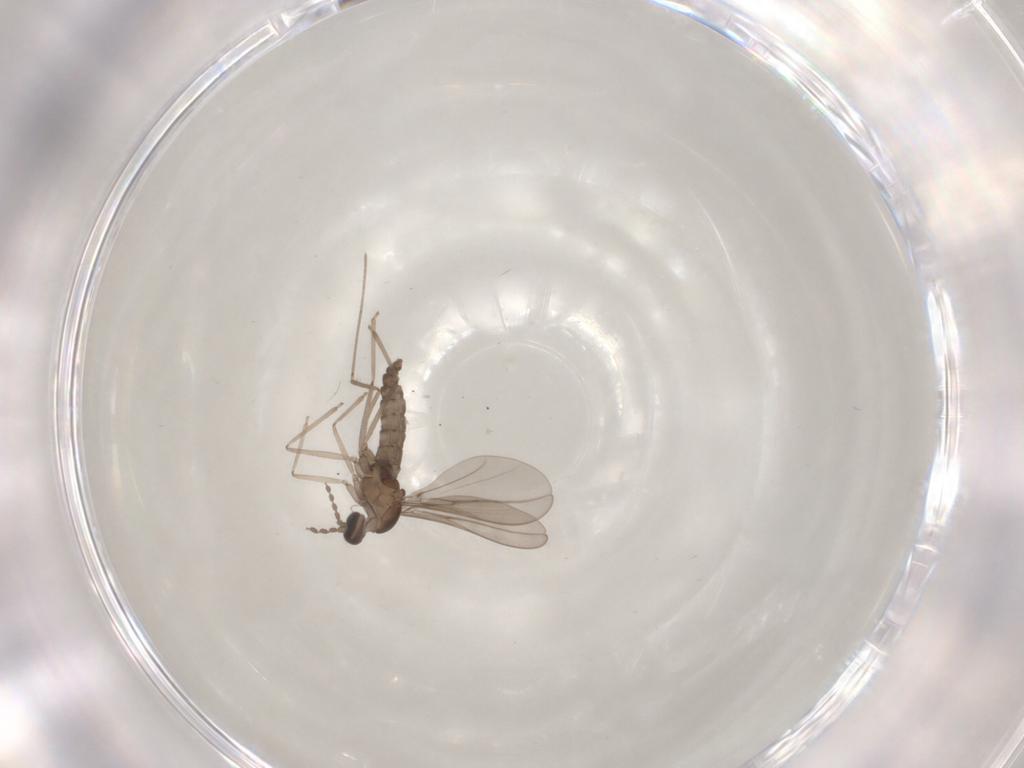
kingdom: Animalia
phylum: Arthropoda
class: Insecta
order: Diptera
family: Cecidomyiidae
